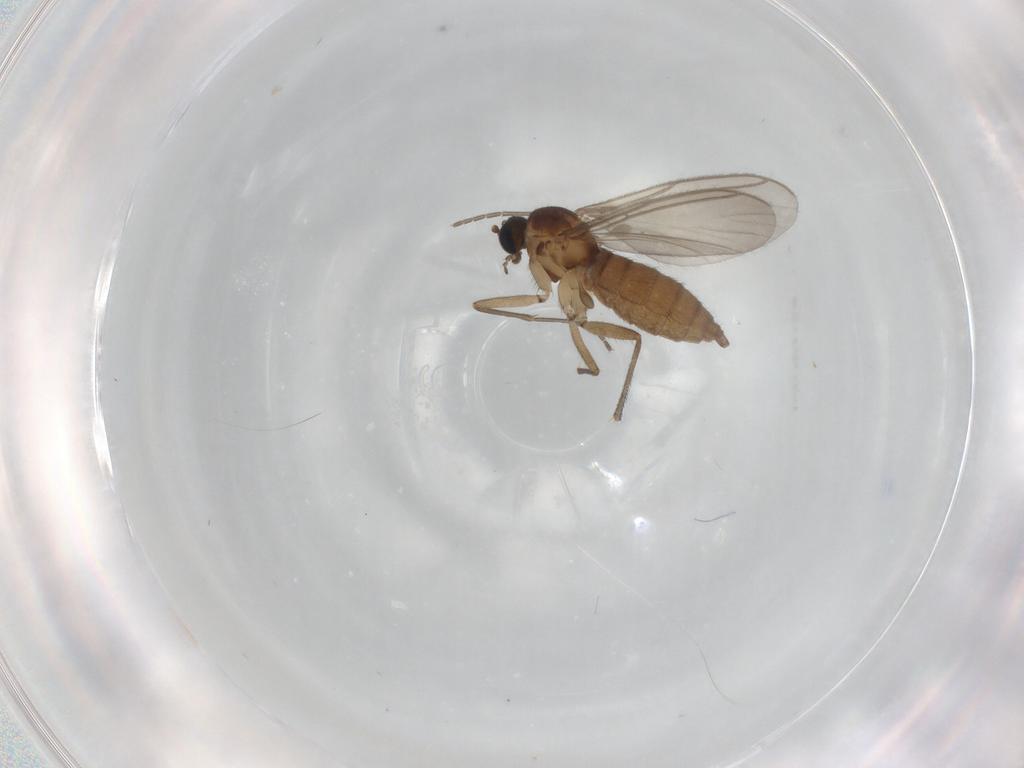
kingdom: Animalia
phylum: Arthropoda
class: Insecta
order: Diptera
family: Sciaridae
